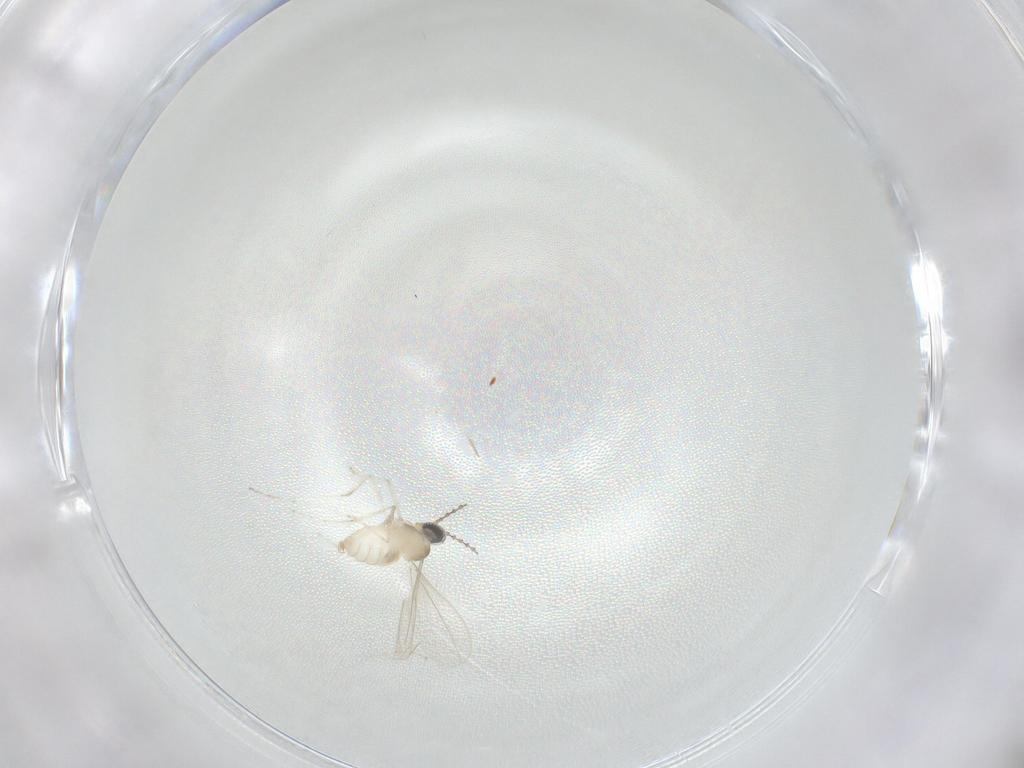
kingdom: Animalia
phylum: Arthropoda
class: Insecta
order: Diptera
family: Cecidomyiidae
